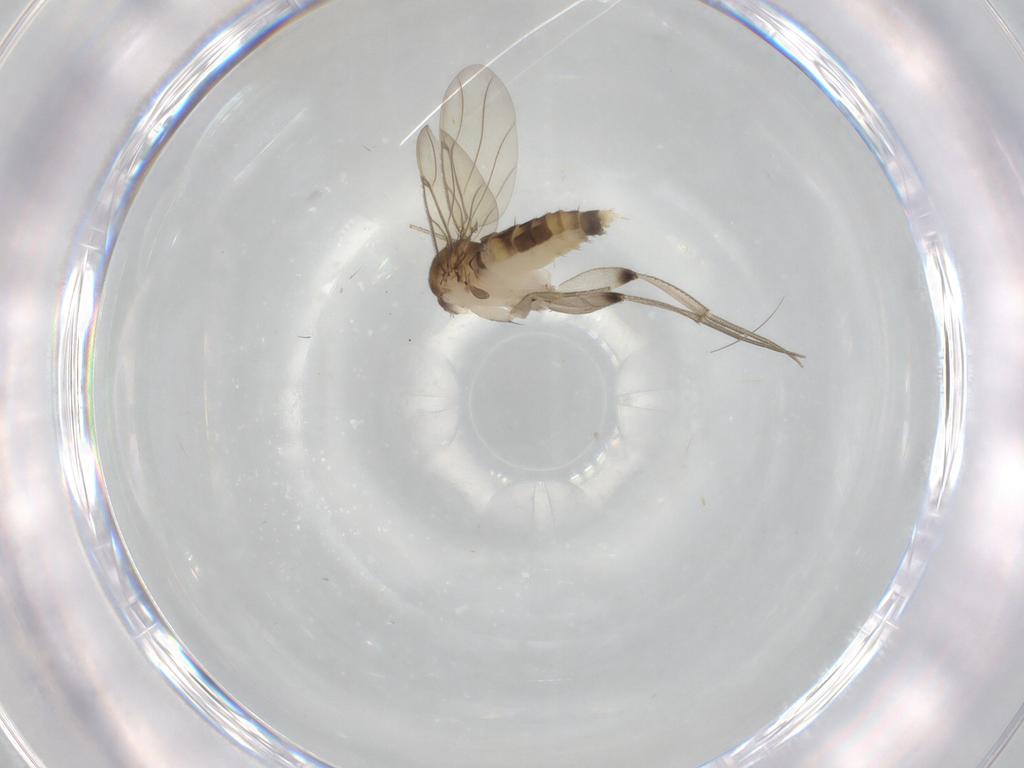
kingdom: Animalia
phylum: Arthropoda
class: Insecta
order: Diptera
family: Phoridae
